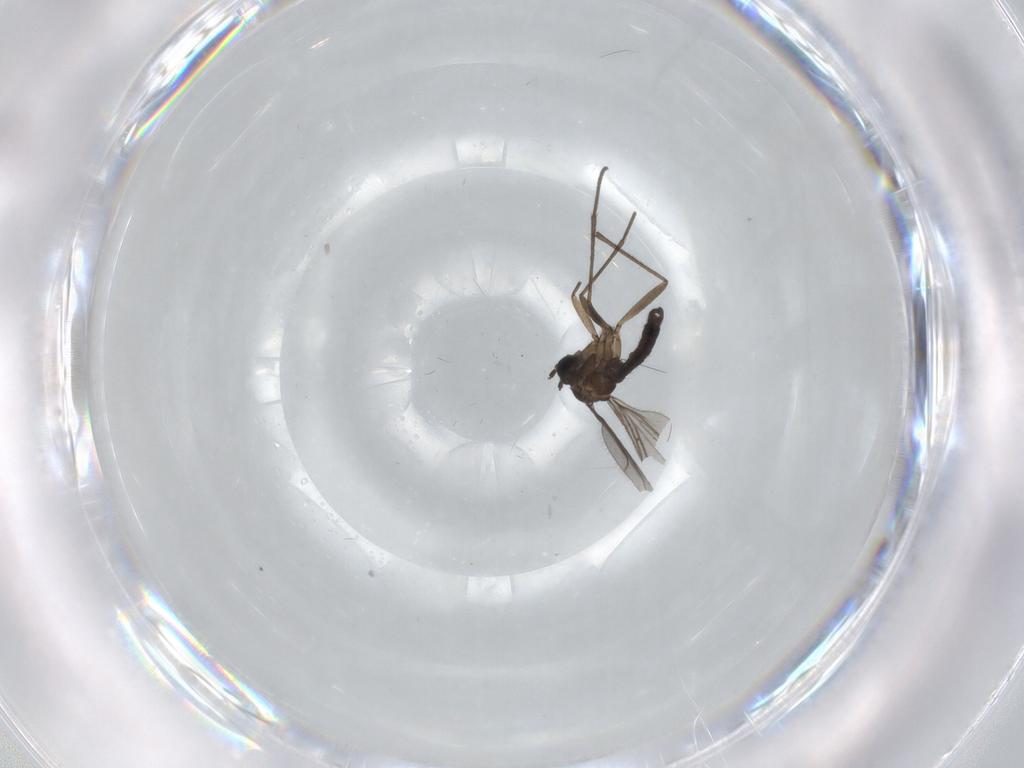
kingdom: Animalia
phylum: Arthropoda
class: Insecta
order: Diptera
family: Sciaridae
